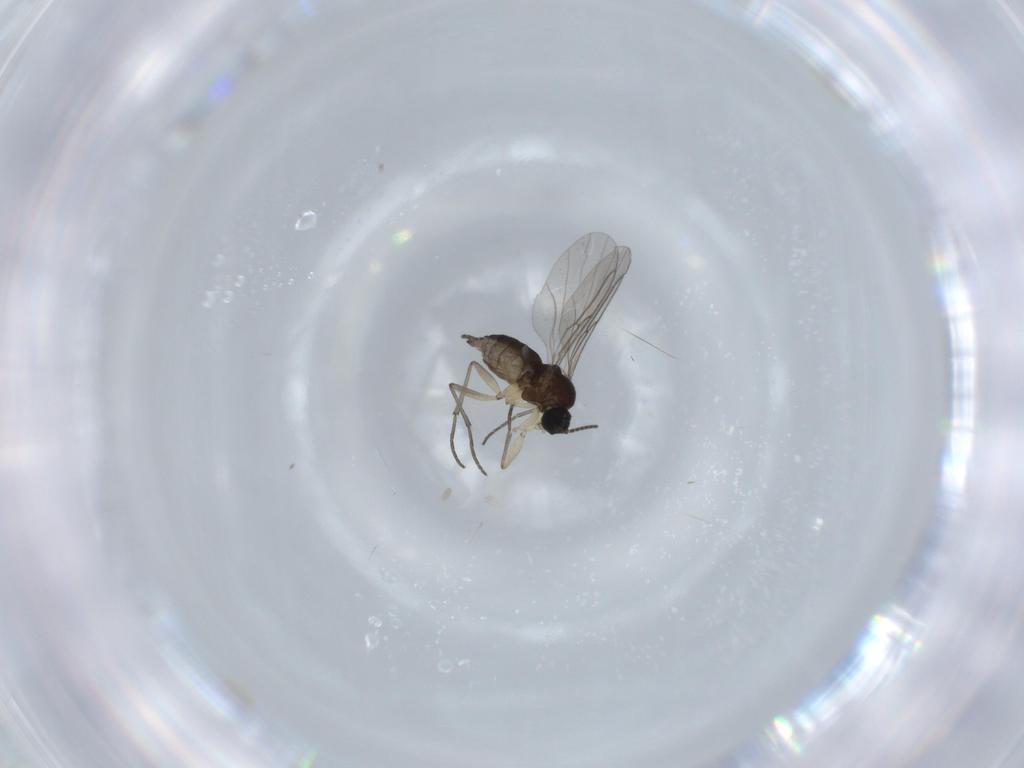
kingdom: Animalia
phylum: Arthropoda
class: Insecta
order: Diptera
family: Sciaridae
